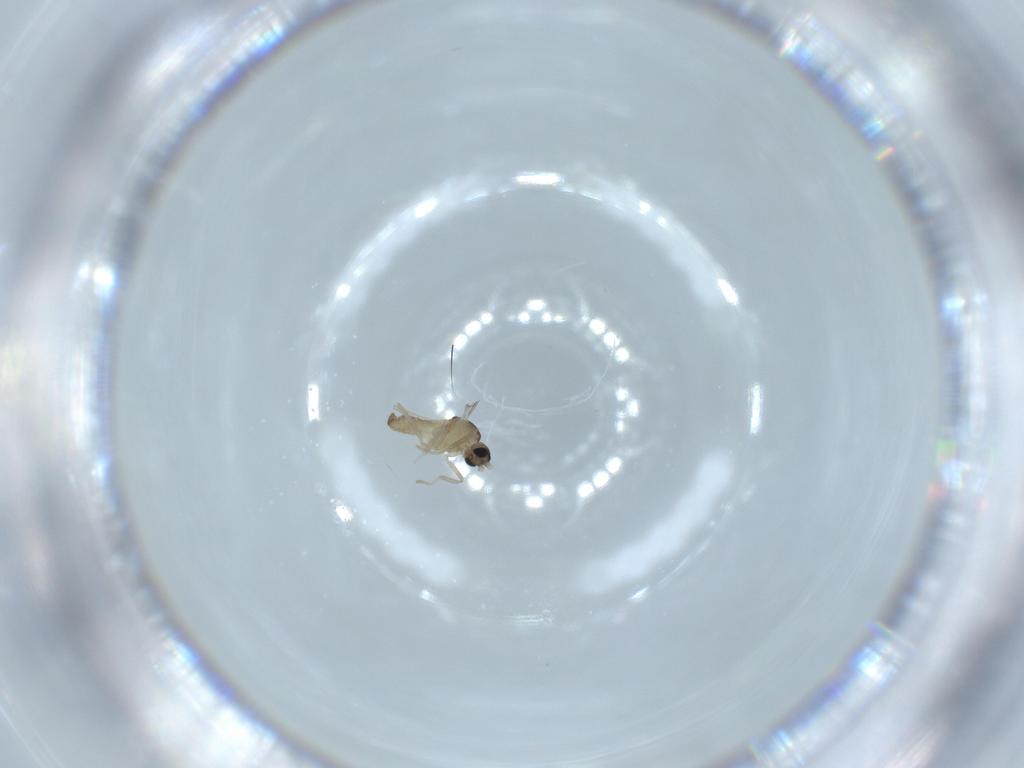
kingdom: Animalia
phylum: Arthropoda
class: Insecta
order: Diptera
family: Cecidomyiidae
